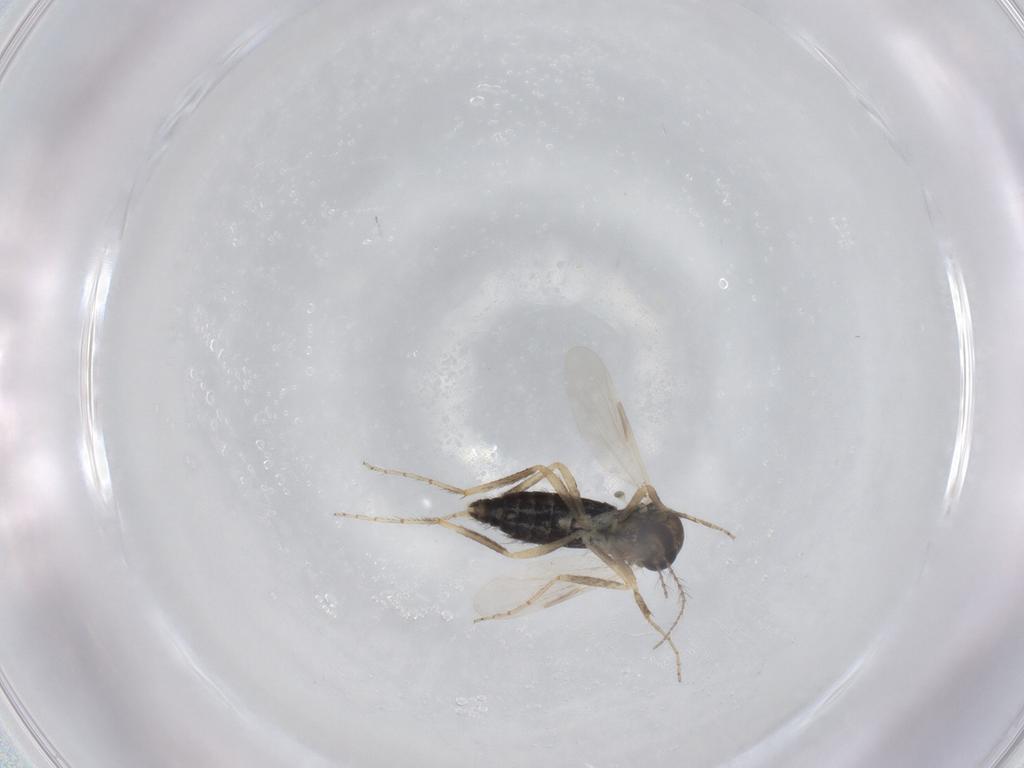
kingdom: Animalia
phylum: Arthropoda
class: Insecta
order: Diptera
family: Ceratopogonidae
